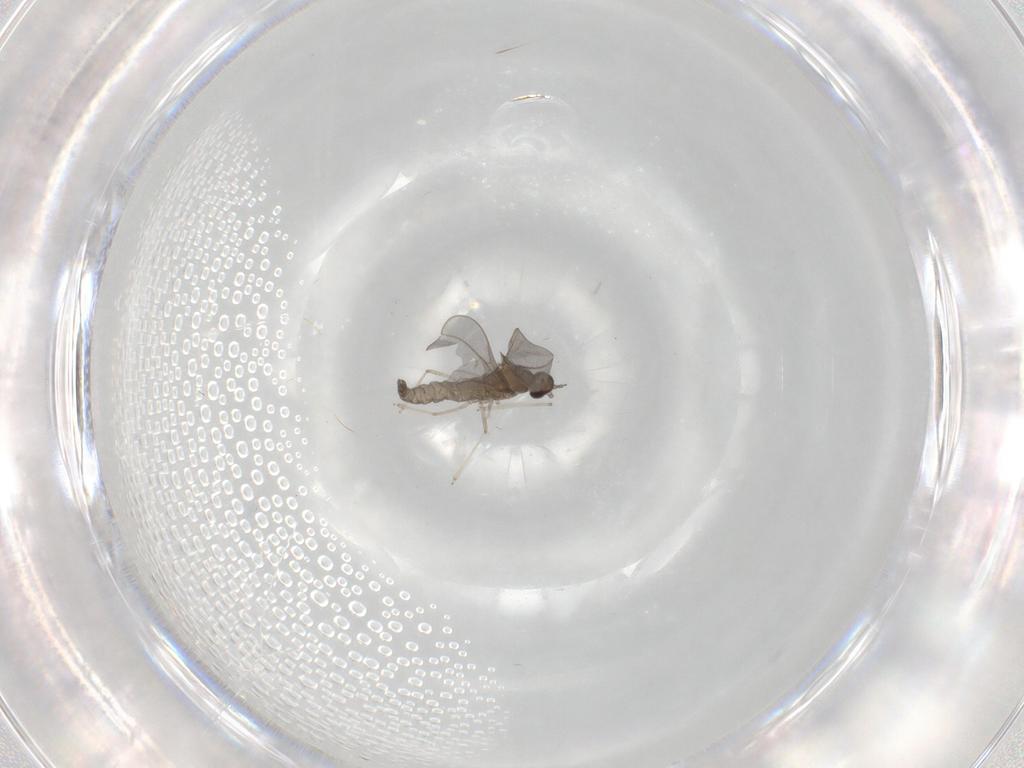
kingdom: Animalia
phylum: Arthropoda
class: Insecta
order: Diptera
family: Cecidomyiidae
